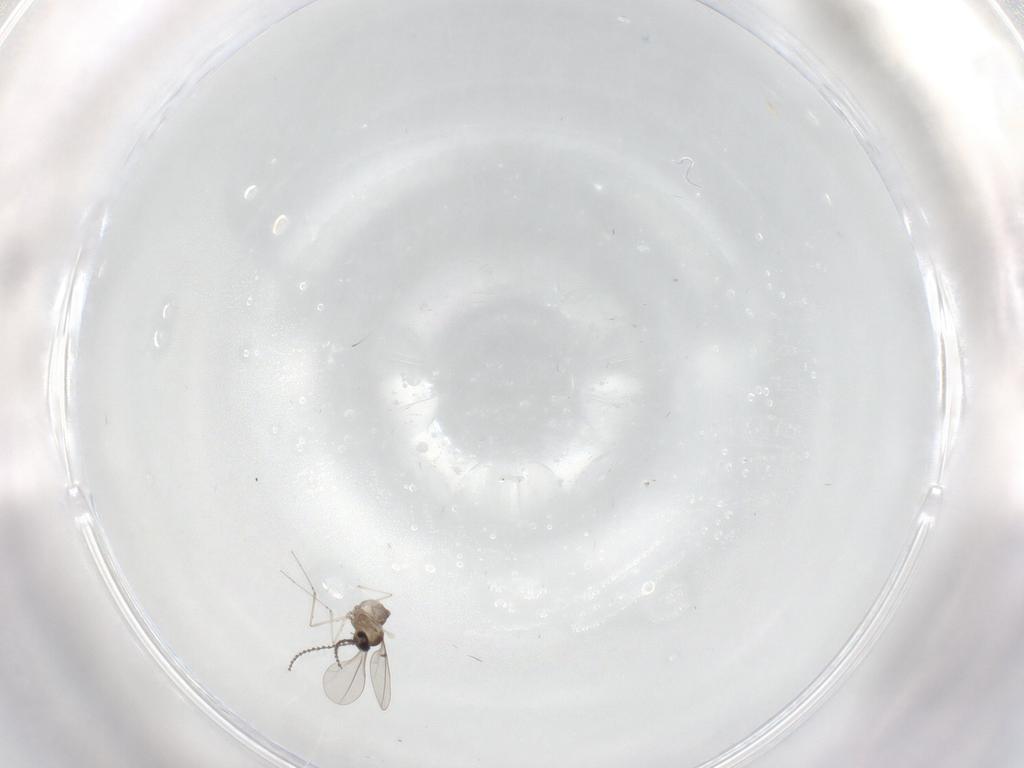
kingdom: Animalia
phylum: Arthropoda
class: Insecta
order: Diptera
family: Cecidomyiidae
